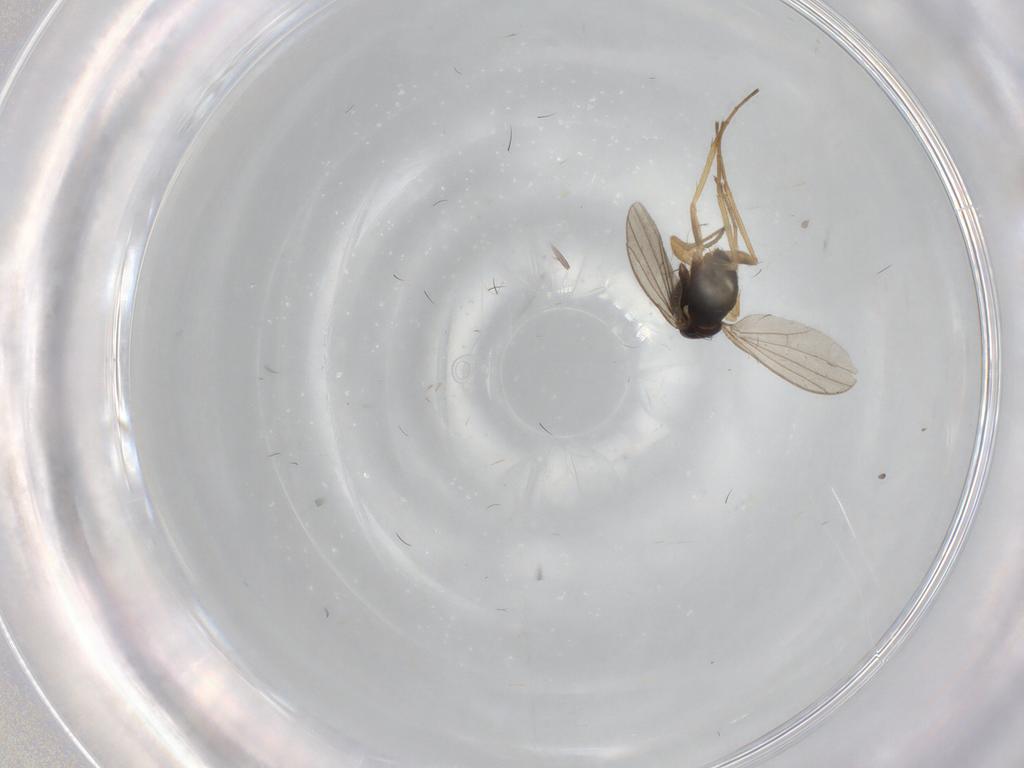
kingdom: Animalia
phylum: Arthropoda
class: Insecta
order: Diptera
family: Dolichopodidae
